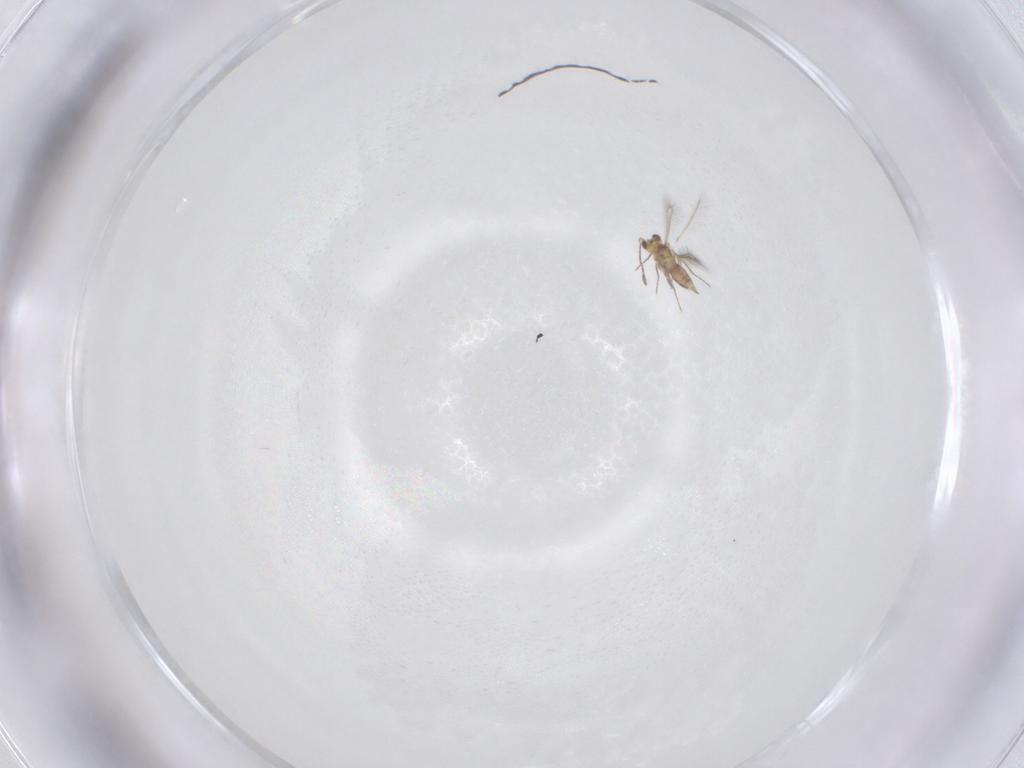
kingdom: Animalia
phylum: Arthropoda
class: Insecta
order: Hymenoptera
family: Mymaridae
